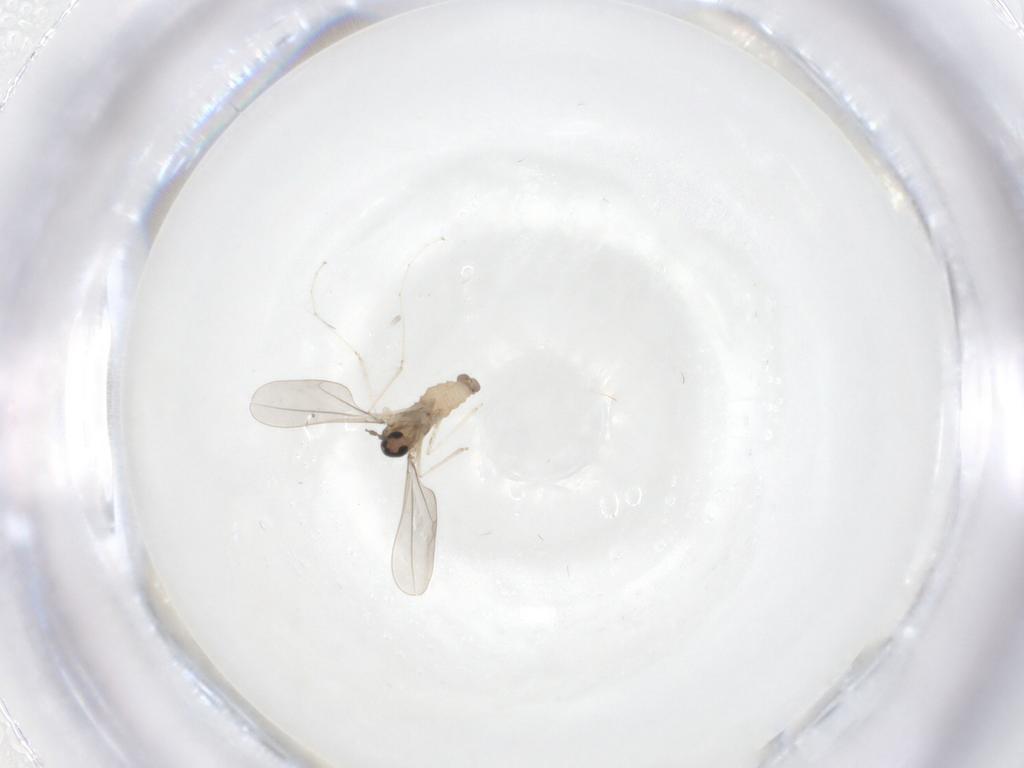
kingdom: Animalia
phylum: Arthropoda
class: Insecta
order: Diptera
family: Cecidomyiidae
